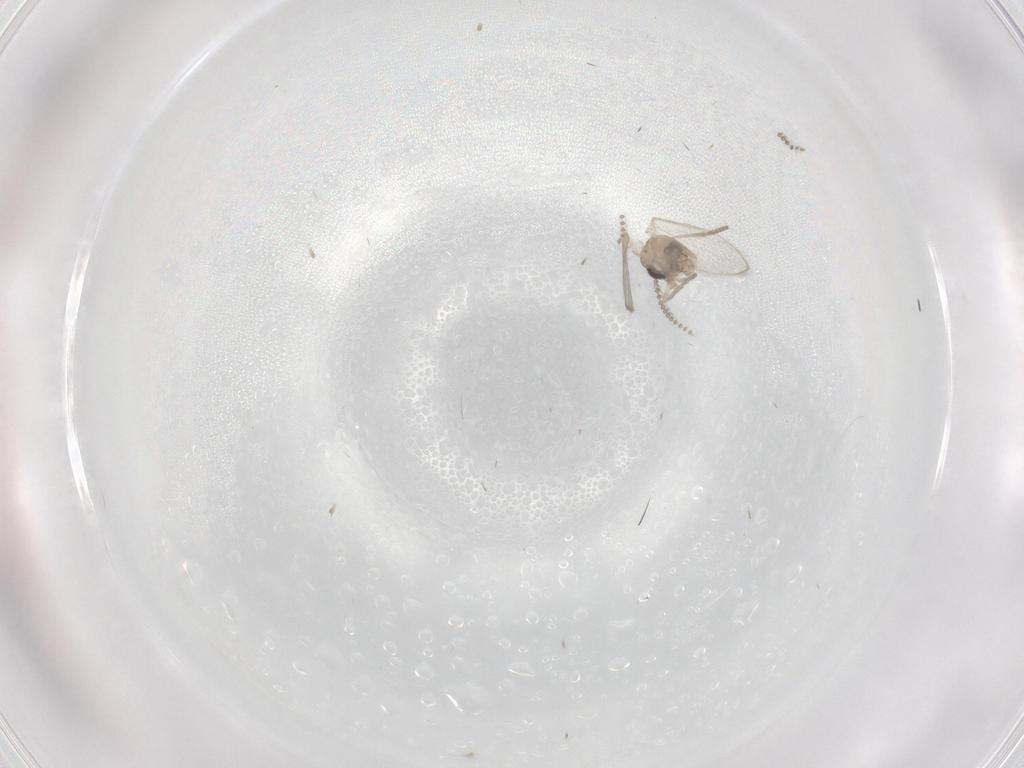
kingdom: Animalia
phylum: Arthropoda
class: Insecta
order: Diptera
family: Psychodidae
